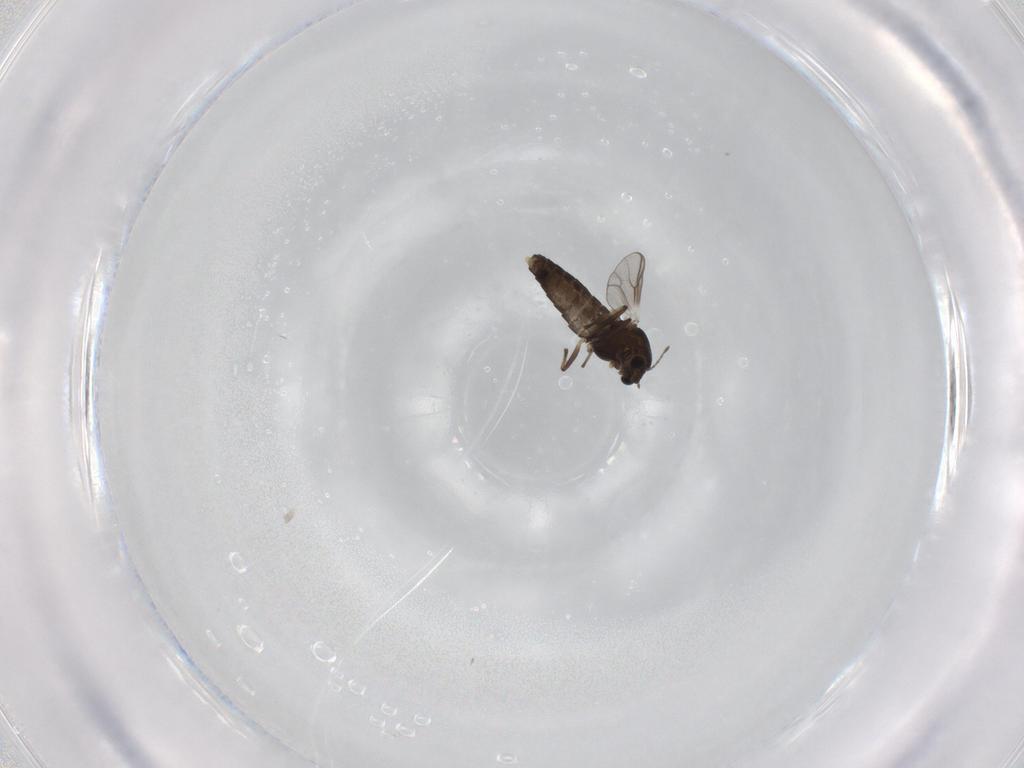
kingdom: Animalia
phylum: Arthropoda
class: Insecta
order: Diptera
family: Chironomidae
